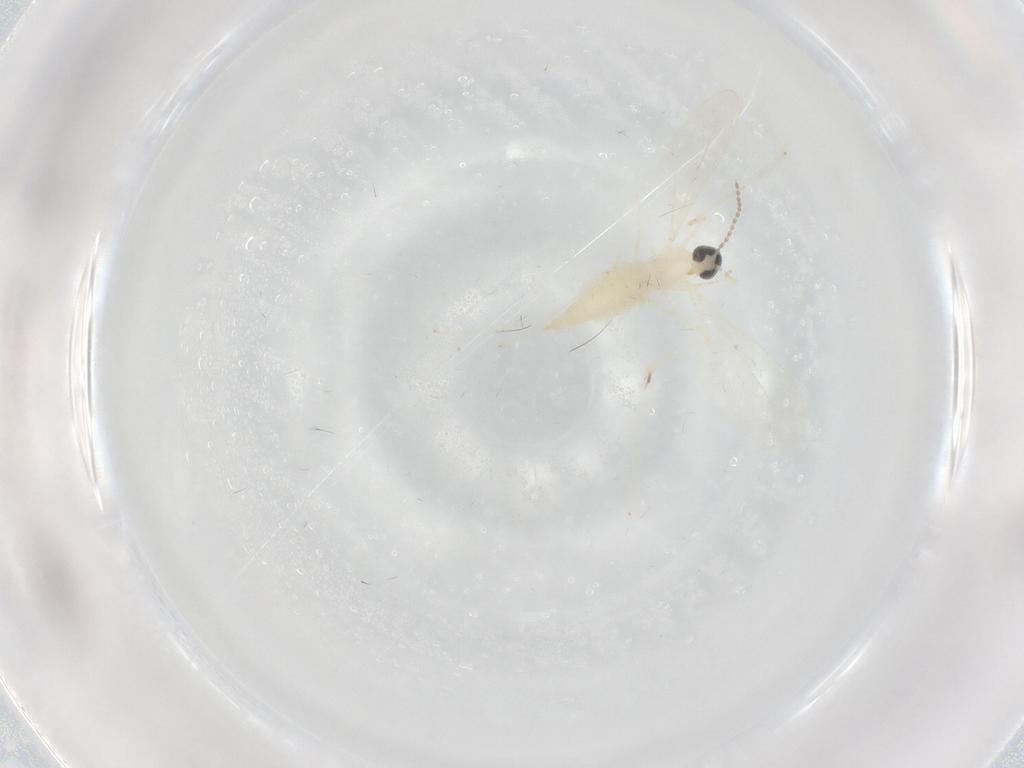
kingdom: Animalia
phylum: Arthropoda
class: Insecta
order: Diptera
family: Cecidomyiidae
